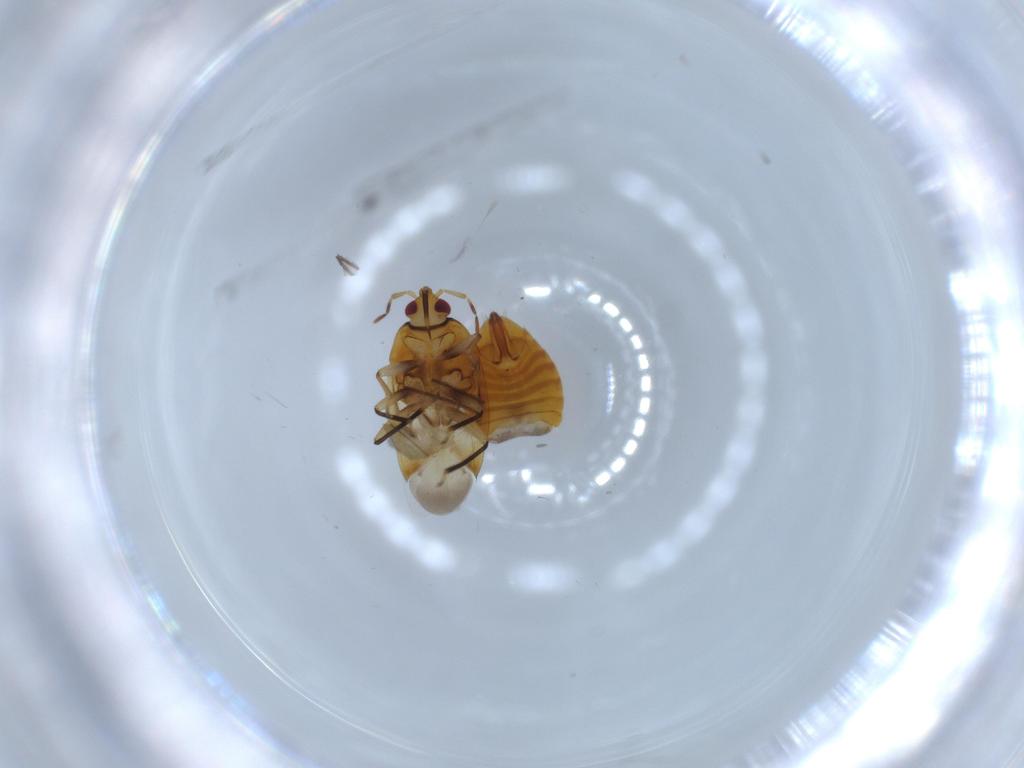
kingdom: Animalia
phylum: Arthropoda
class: Insecta
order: Hemiptera
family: Anthocoridae
